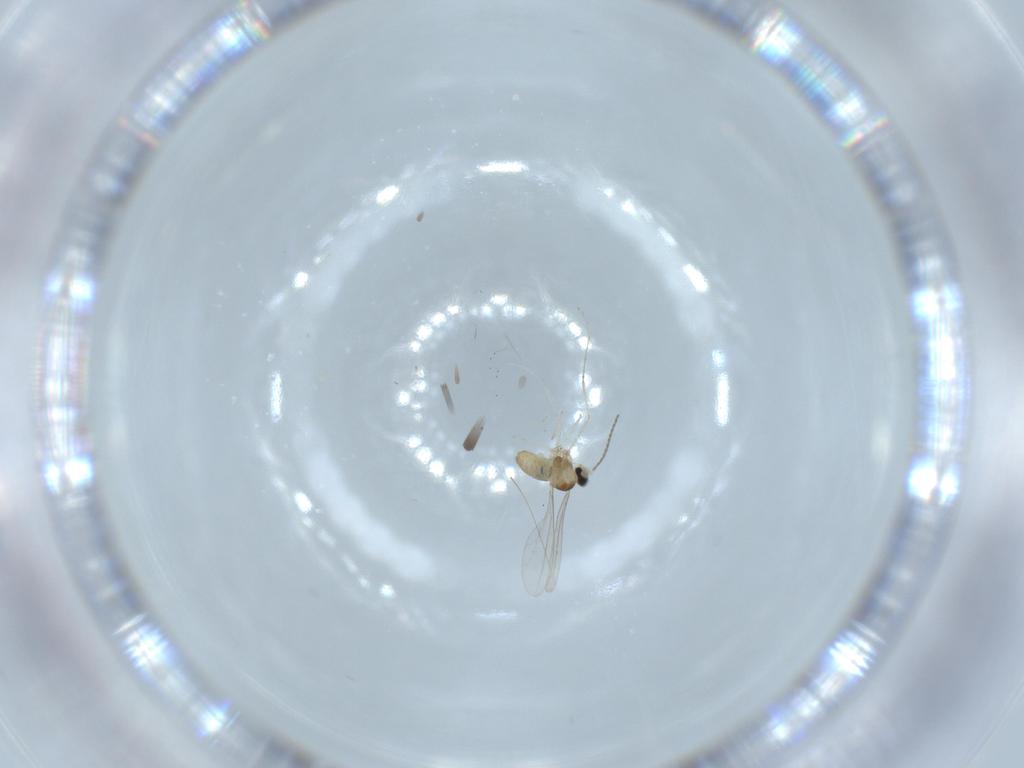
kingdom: Animalia
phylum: Arthropoda
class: Insecta
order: Diptera
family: Cecidomyiidae
